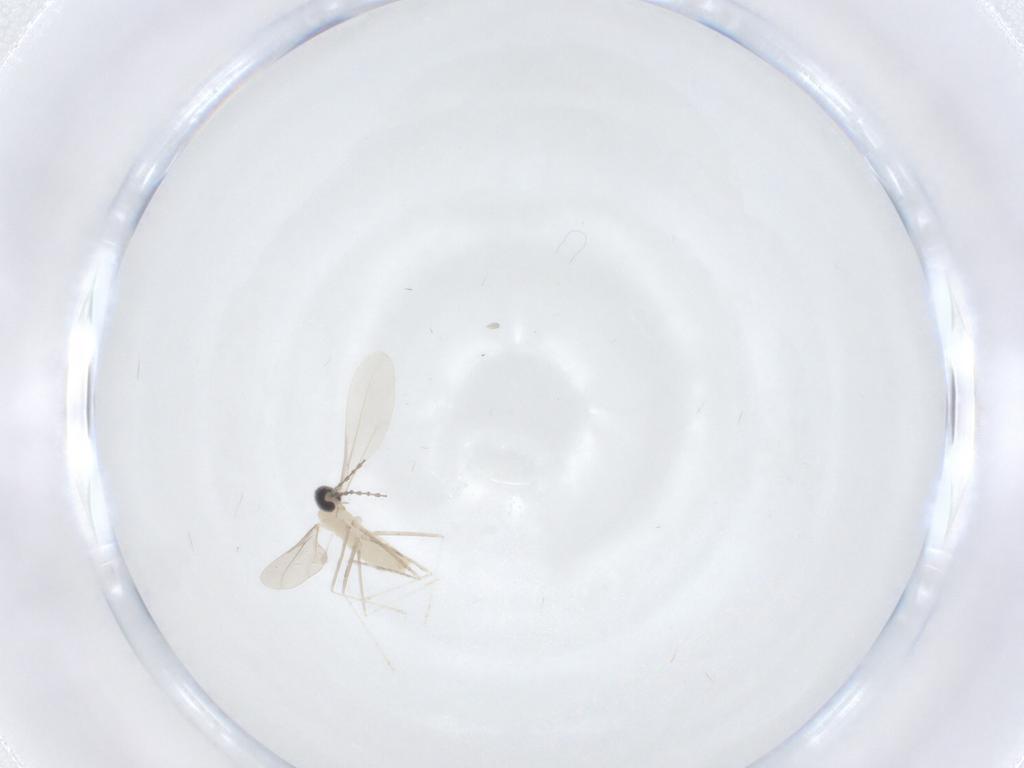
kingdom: Animalia
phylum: Arthropoda
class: Insecta
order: Diptera
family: Cecidomyiidae
